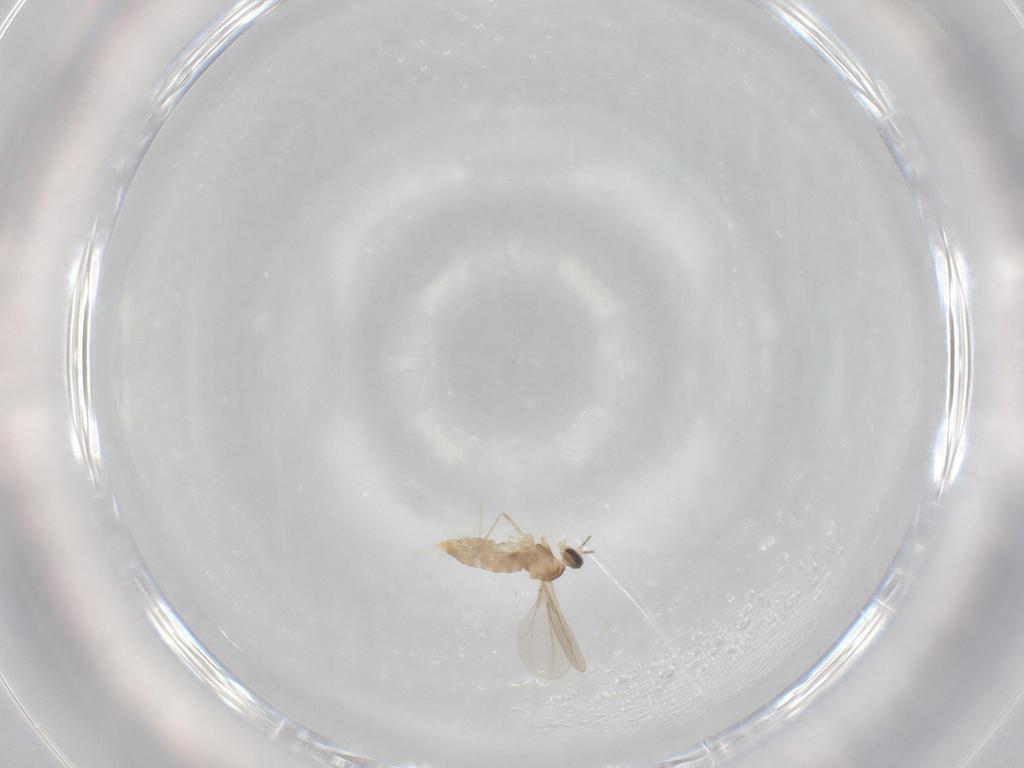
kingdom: Animalia
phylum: Arthropoda
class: Insecta
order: Diptera
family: Cecidomyiidae
